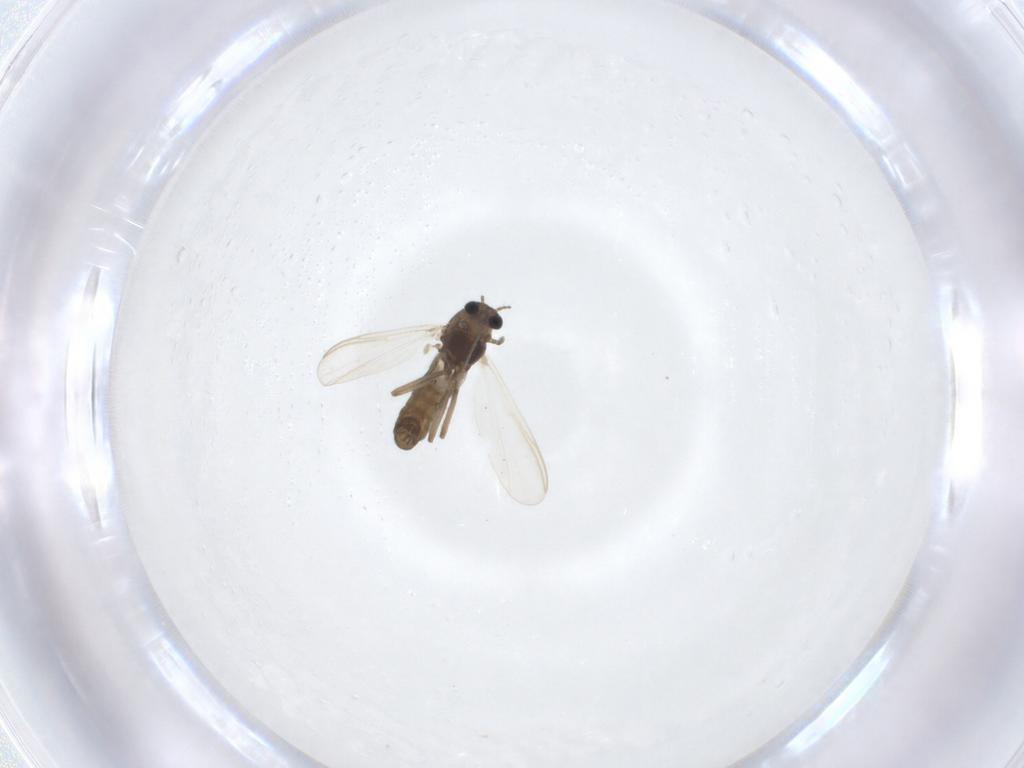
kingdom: Animalia
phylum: Arthropoda
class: Insecta
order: Diptera
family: Chironomidae
